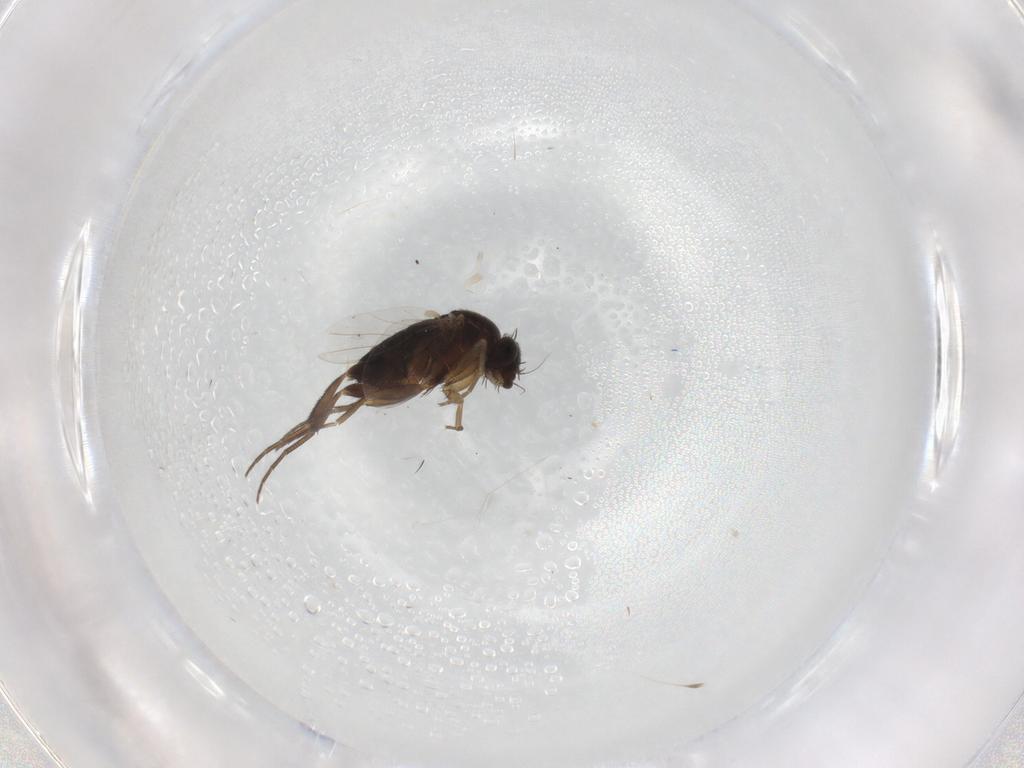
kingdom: Animalia
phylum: Arthropoda
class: Insecta
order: Diptera
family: Phoridae
